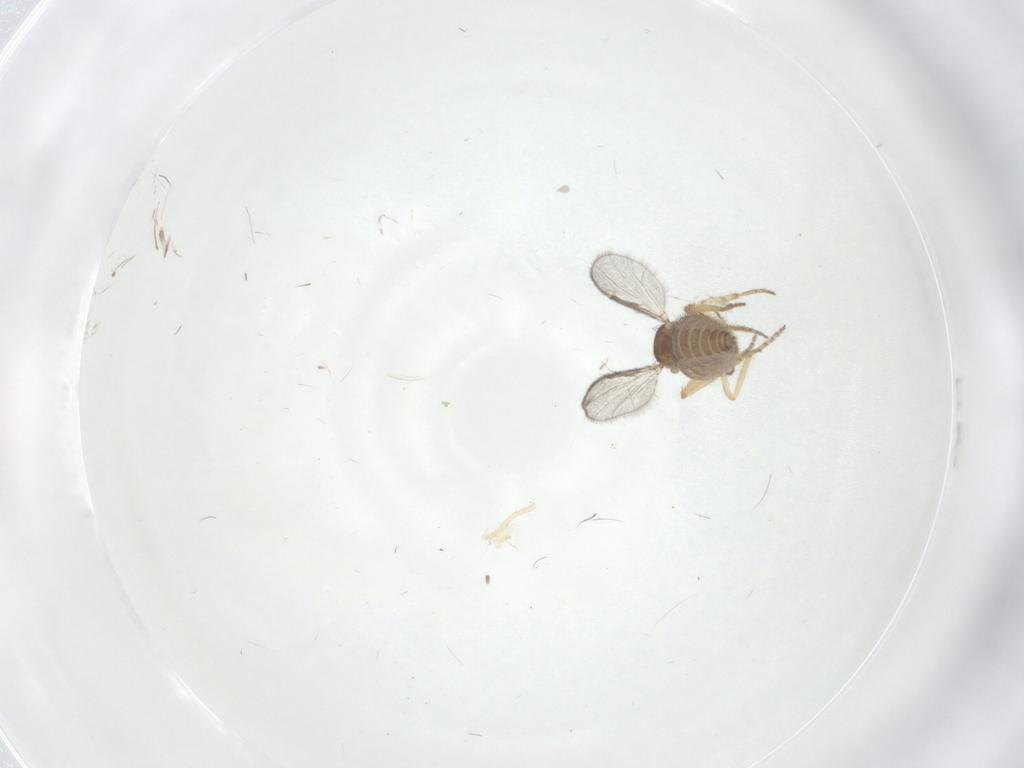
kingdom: Animalia
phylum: Arthropoda
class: Insecta
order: Diptera
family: Ceratopogonidae
